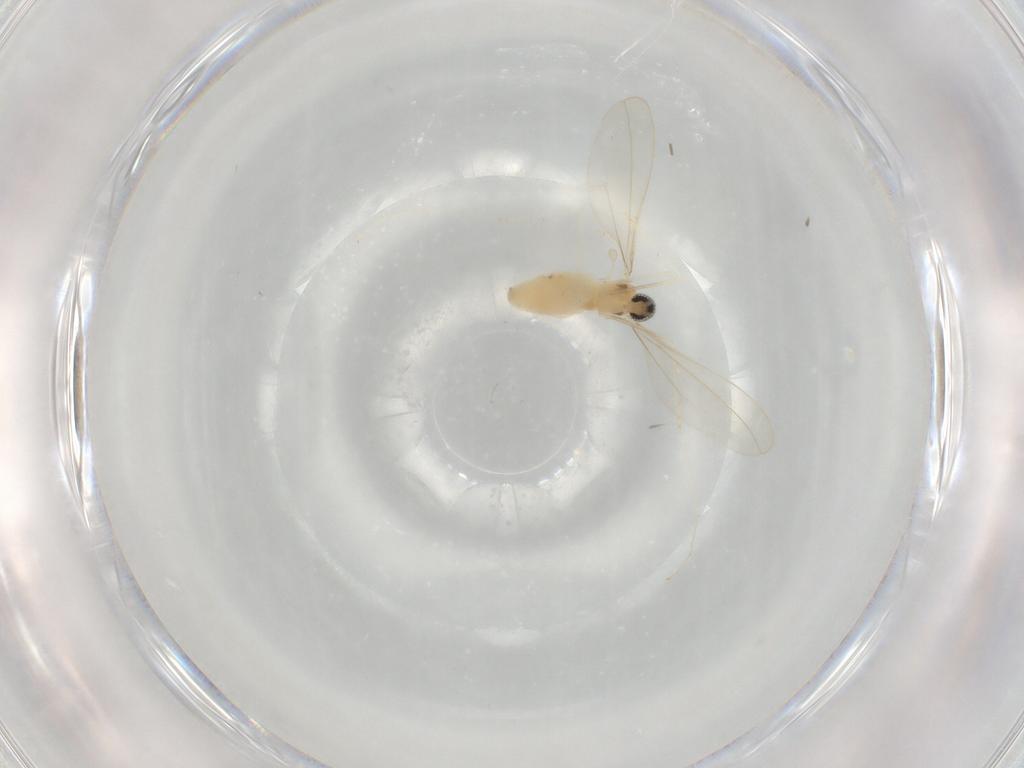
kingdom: Animalia
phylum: Arthropoda
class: Insecta
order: Diptera
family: Cecidomyiidae
